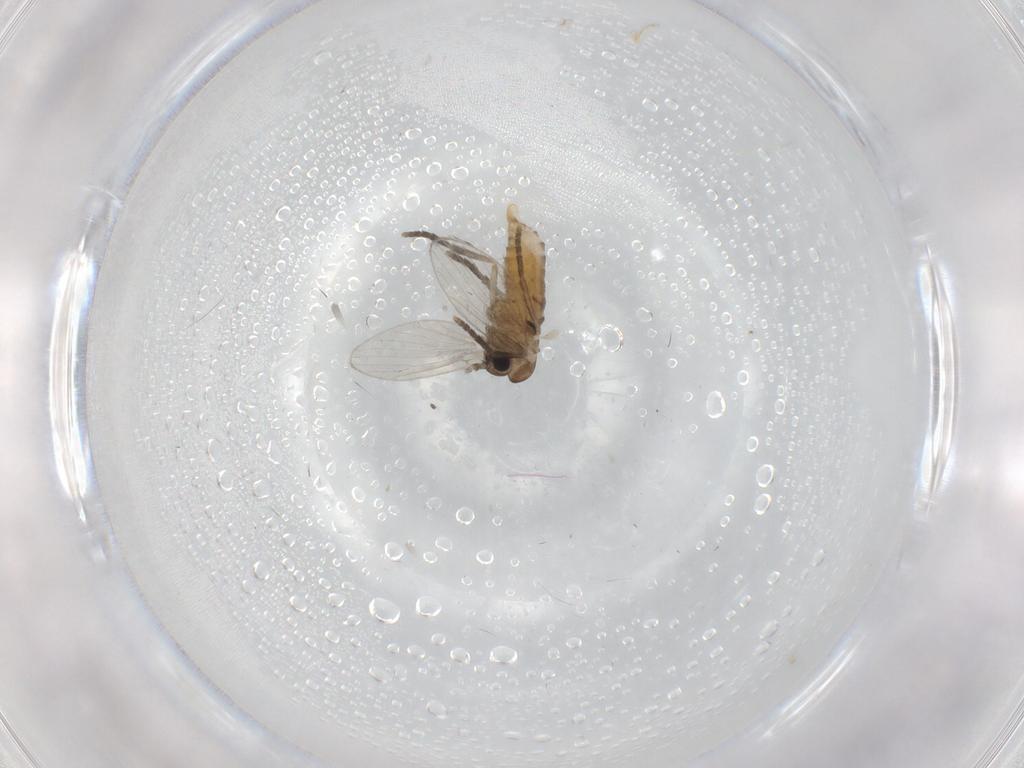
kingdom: Animalia
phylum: Arthropoda
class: Insecta
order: Diptera
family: Psychodidae
